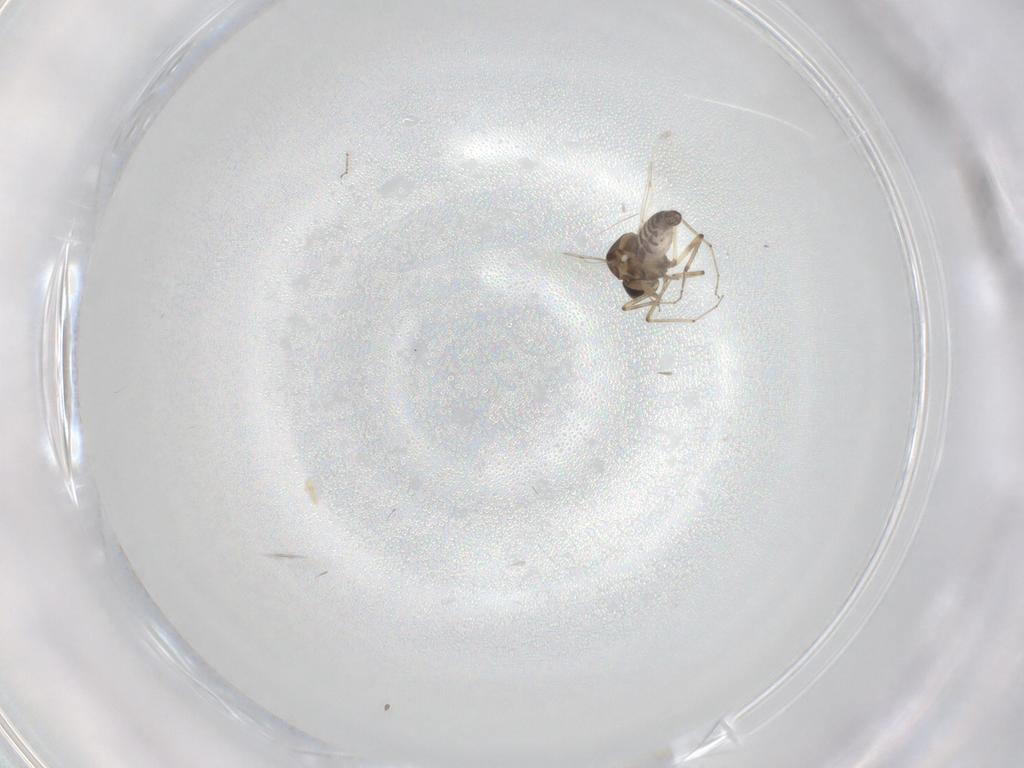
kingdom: Animalia
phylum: Arthropoda
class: Insecta
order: Diptera
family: Ceratopogonidae
